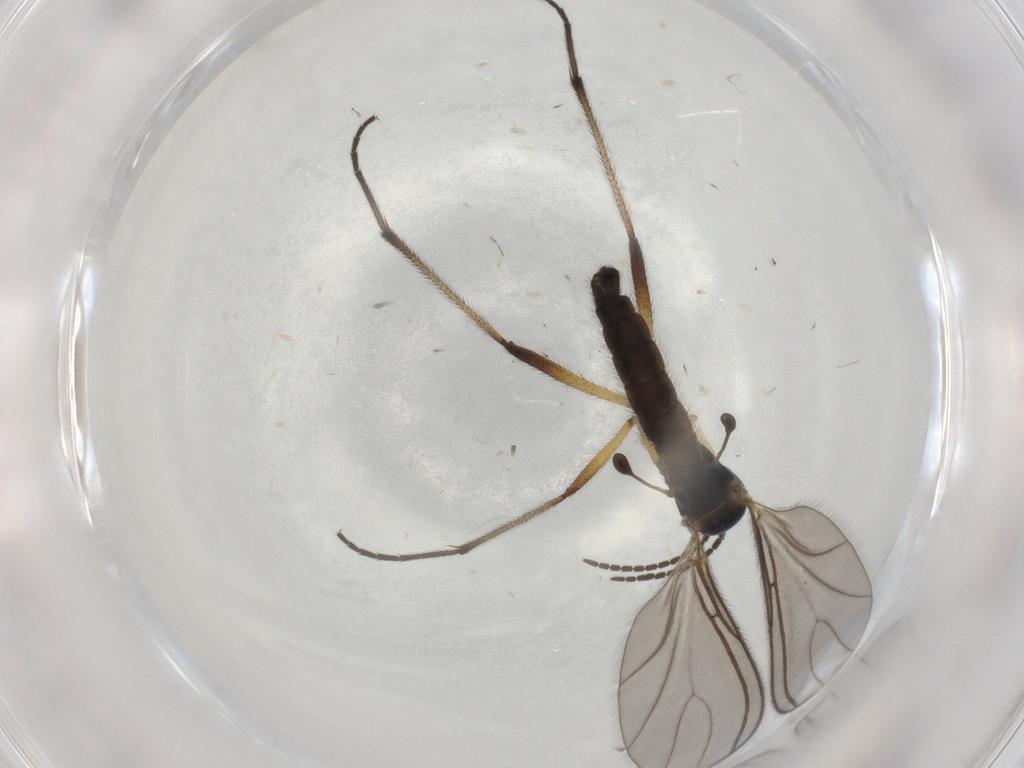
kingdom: Animalia
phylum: Arthropoda
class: Insecta
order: Diptera
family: Sciaridae
